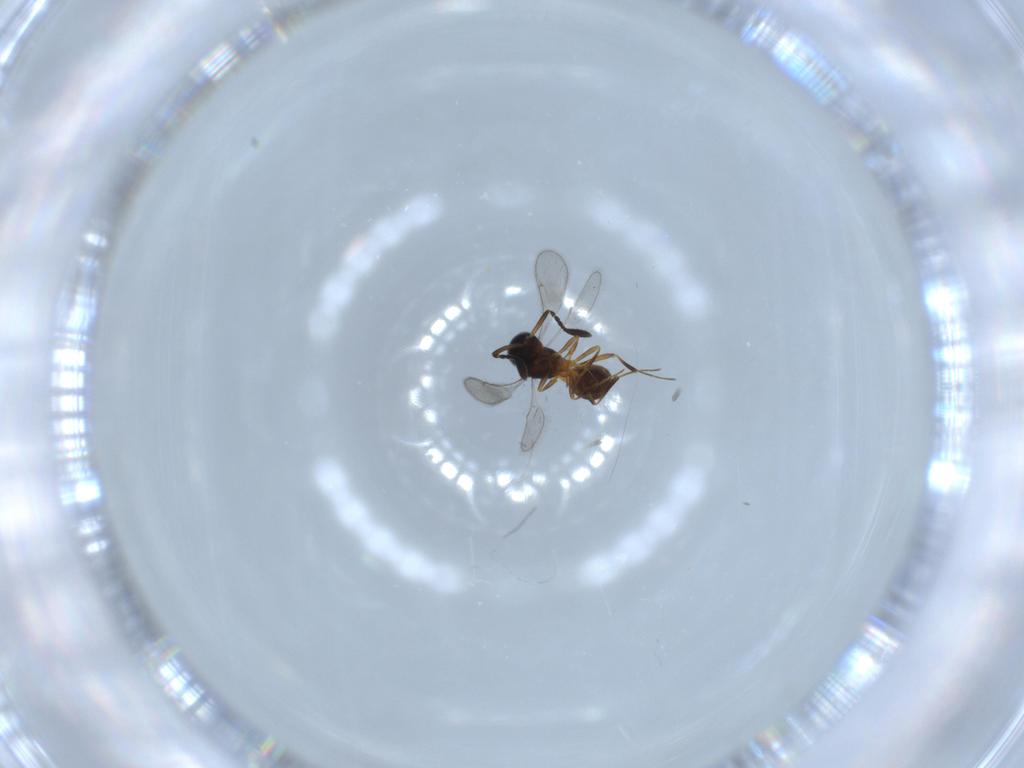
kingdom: Animalia
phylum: Arthropoda
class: Insecta
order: Hymenoptera
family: Scelionidae
